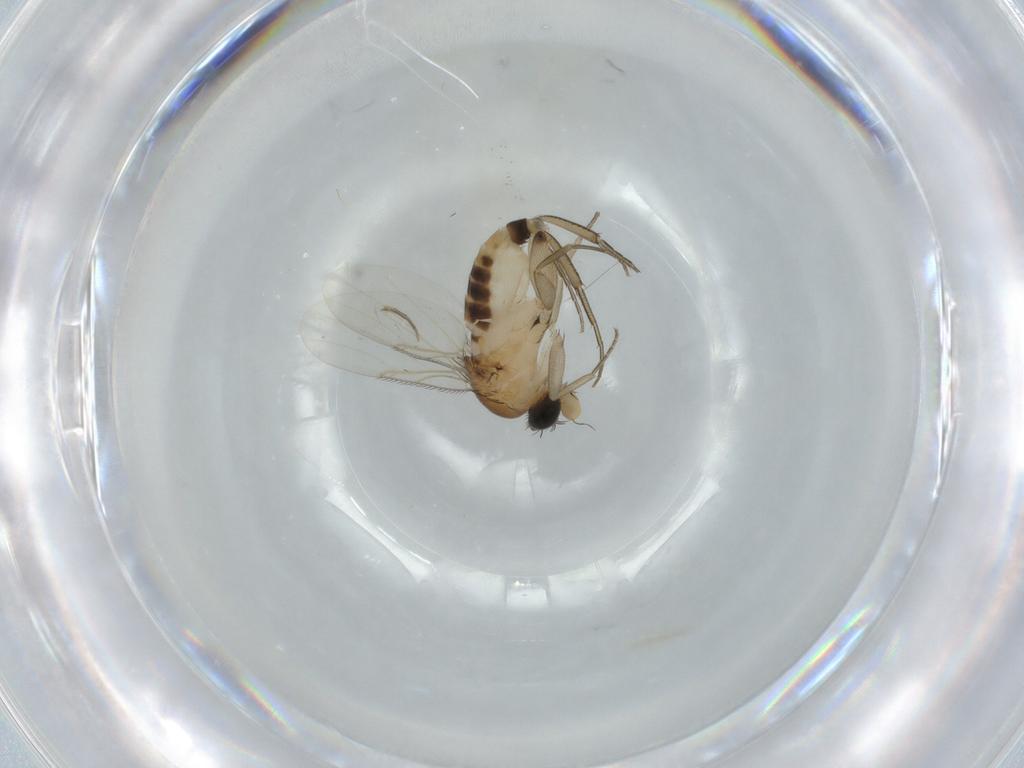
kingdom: Animalia
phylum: Arthropoda
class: Insecta
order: Diptera
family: Phoridae
